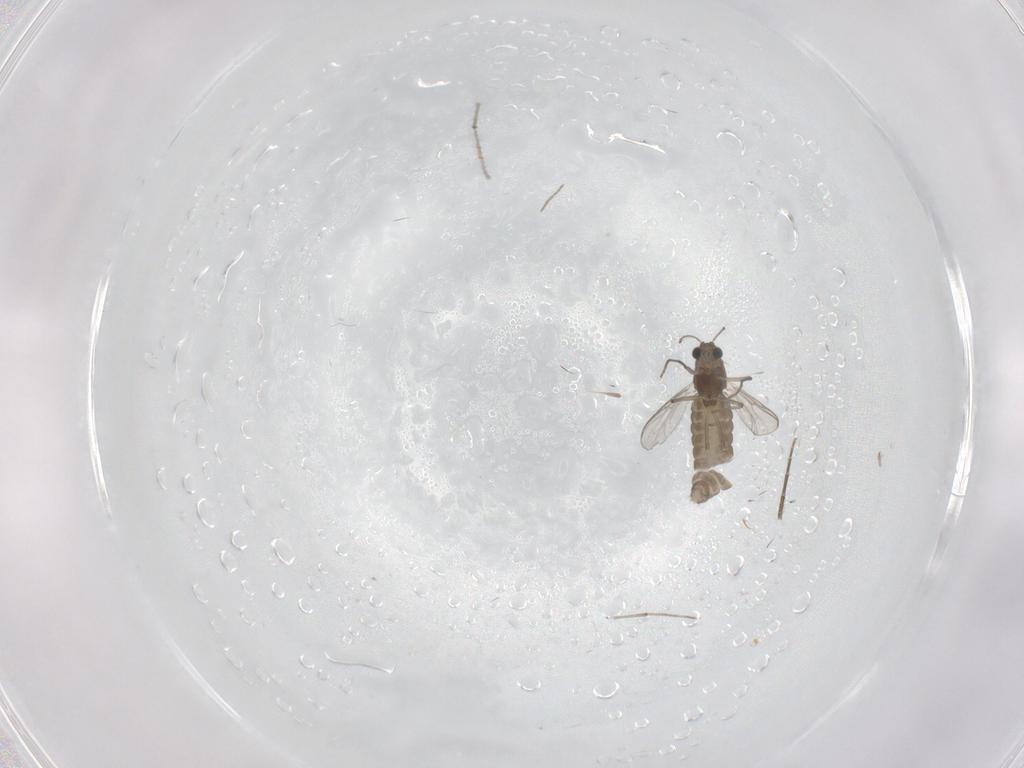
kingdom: Animalia
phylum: Arthropoda
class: Insecta
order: Diptera
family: Chironomidae
